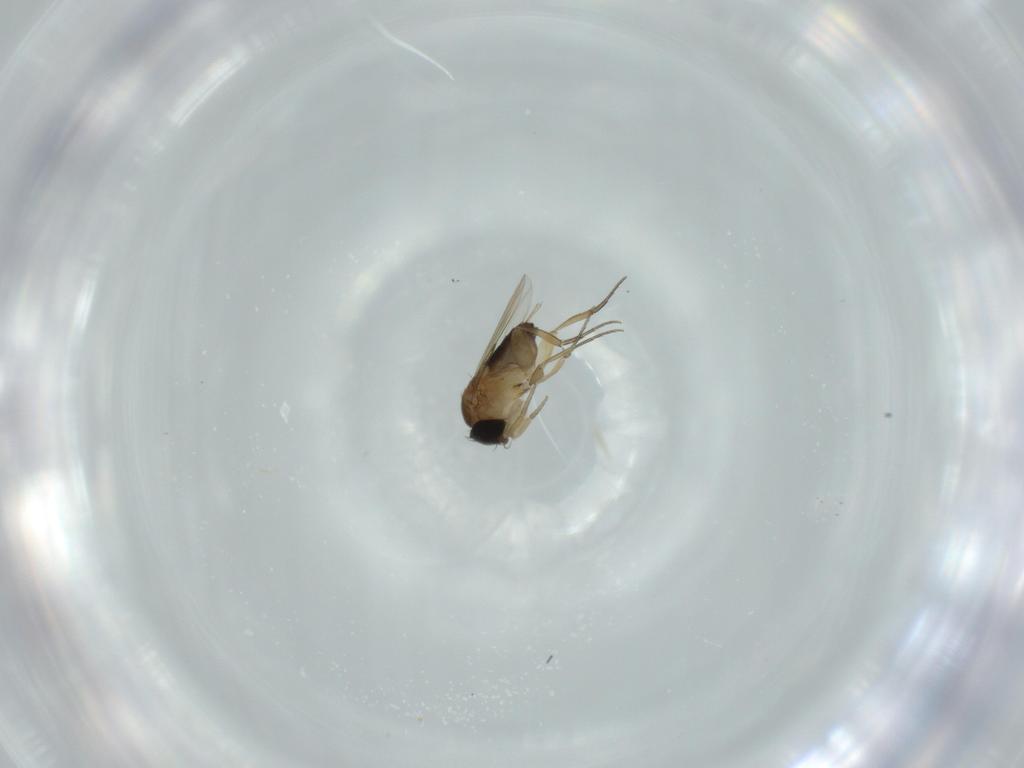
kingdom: Animalia
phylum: Arthropoda
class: Insecta
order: Diptera
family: Phoridae
